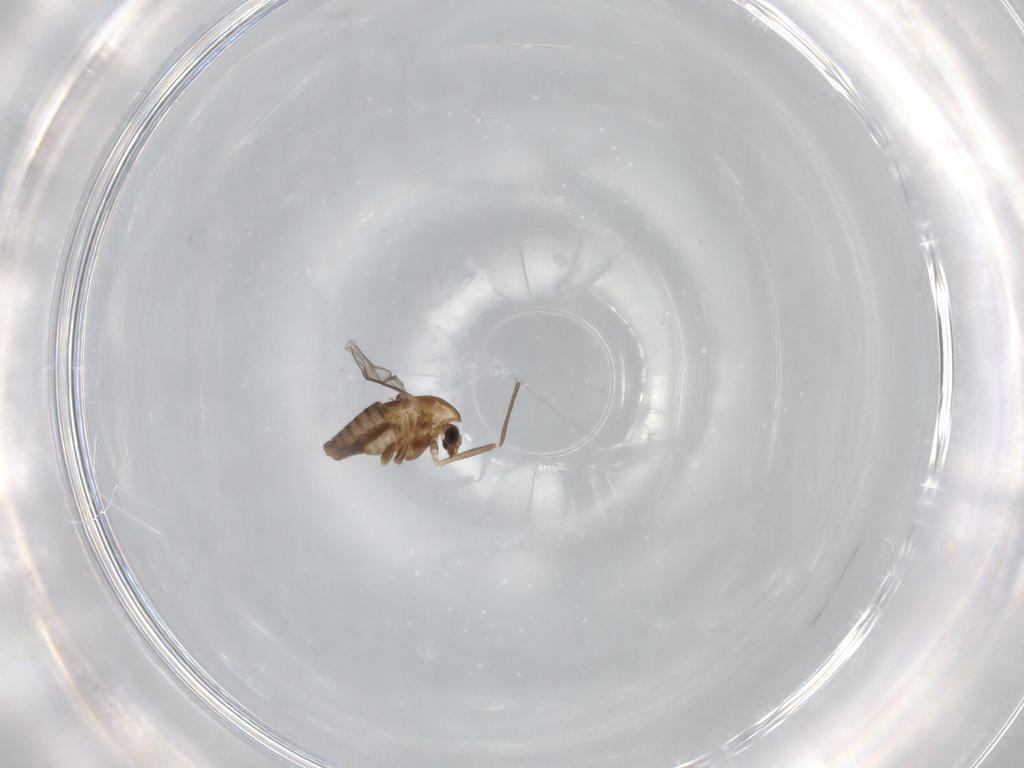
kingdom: Animalia
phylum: Arthropoda
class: Insecta
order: Diptera
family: Chironomidae
